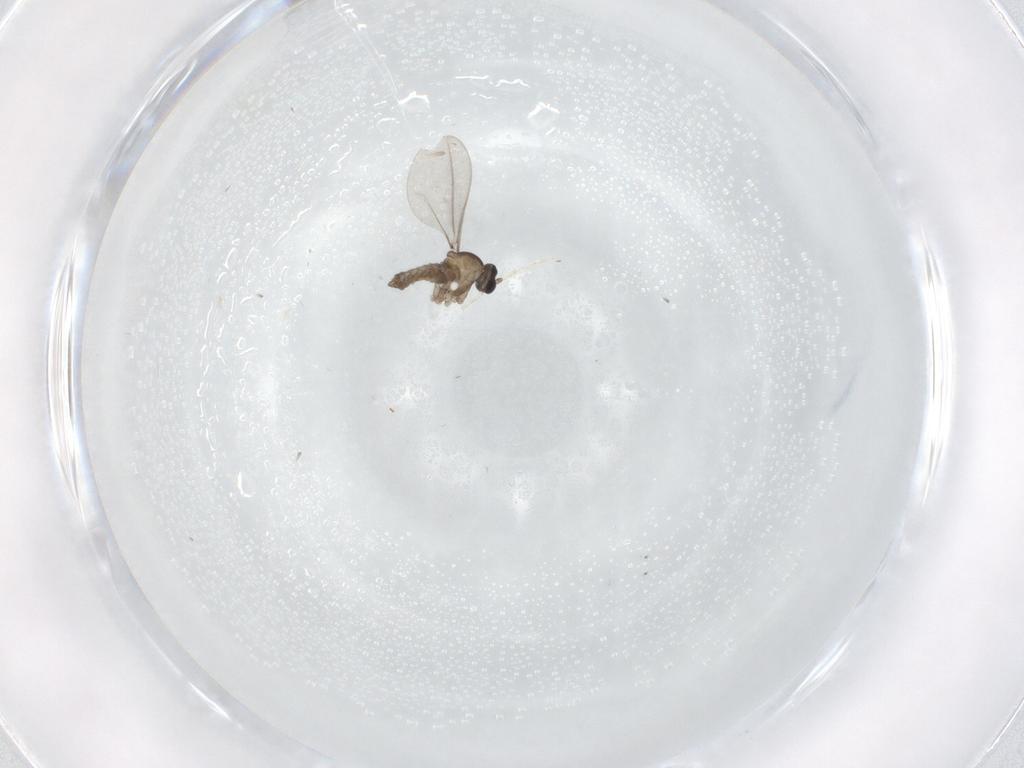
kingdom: Animalia
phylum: Arthropoda
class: Insecta
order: Diptera
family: Cecidomyiidae
